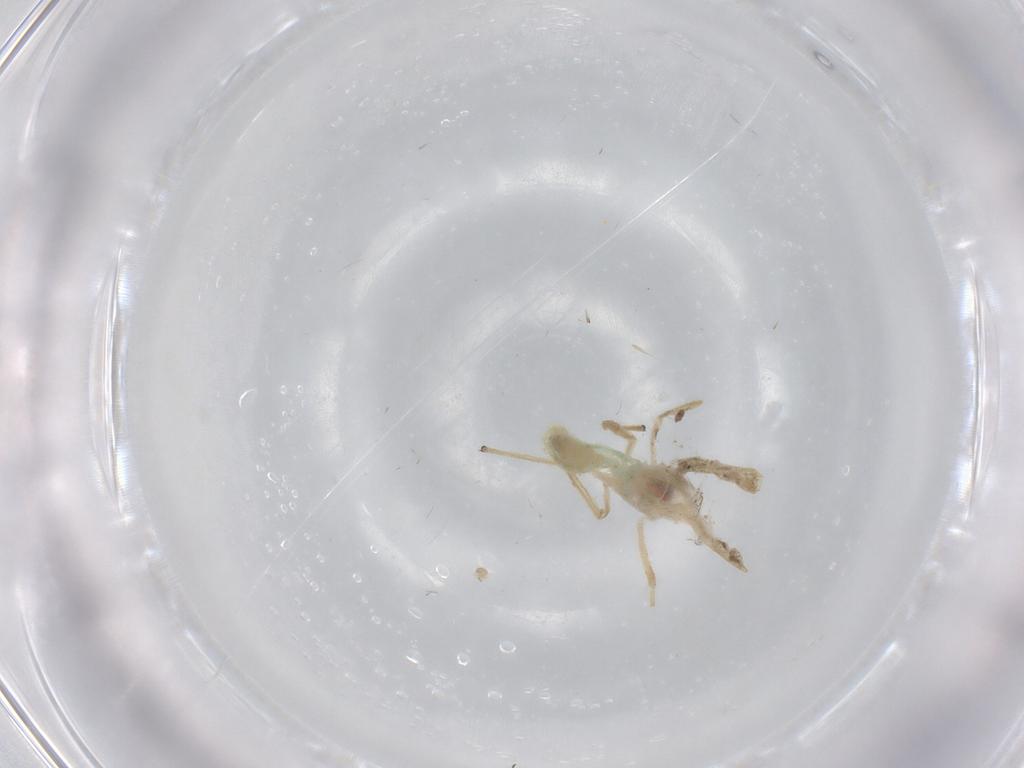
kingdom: Animalia
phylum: Arthropoda
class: Insecta
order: Diptera
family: Chironomidae
